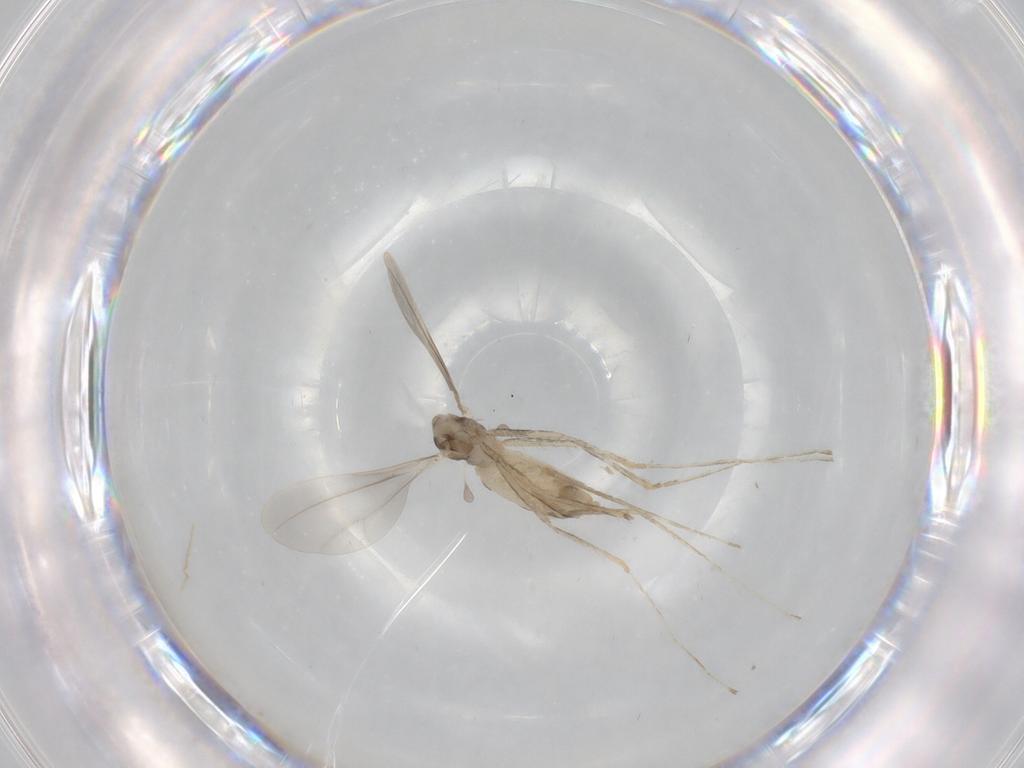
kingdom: Animalia
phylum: Arthropoda
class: Insecta
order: Diptera
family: Cecidomyiidae
